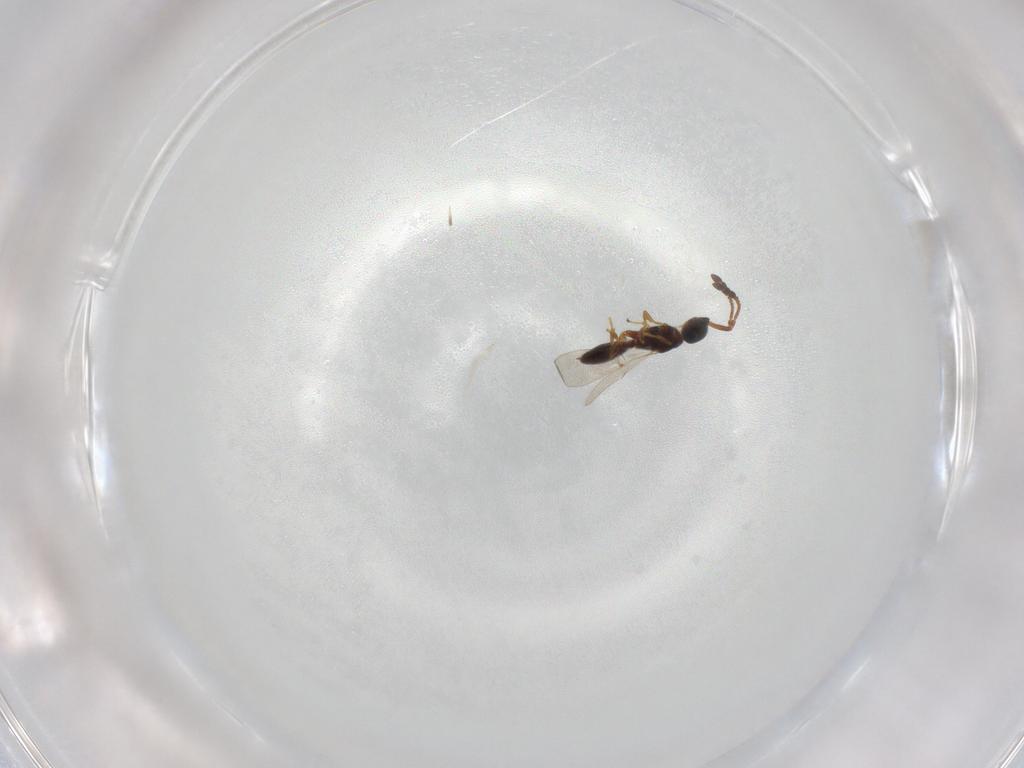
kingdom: Animalia
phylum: Arthropoda
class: Insecta
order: Hymenoptera
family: Diapriidae
